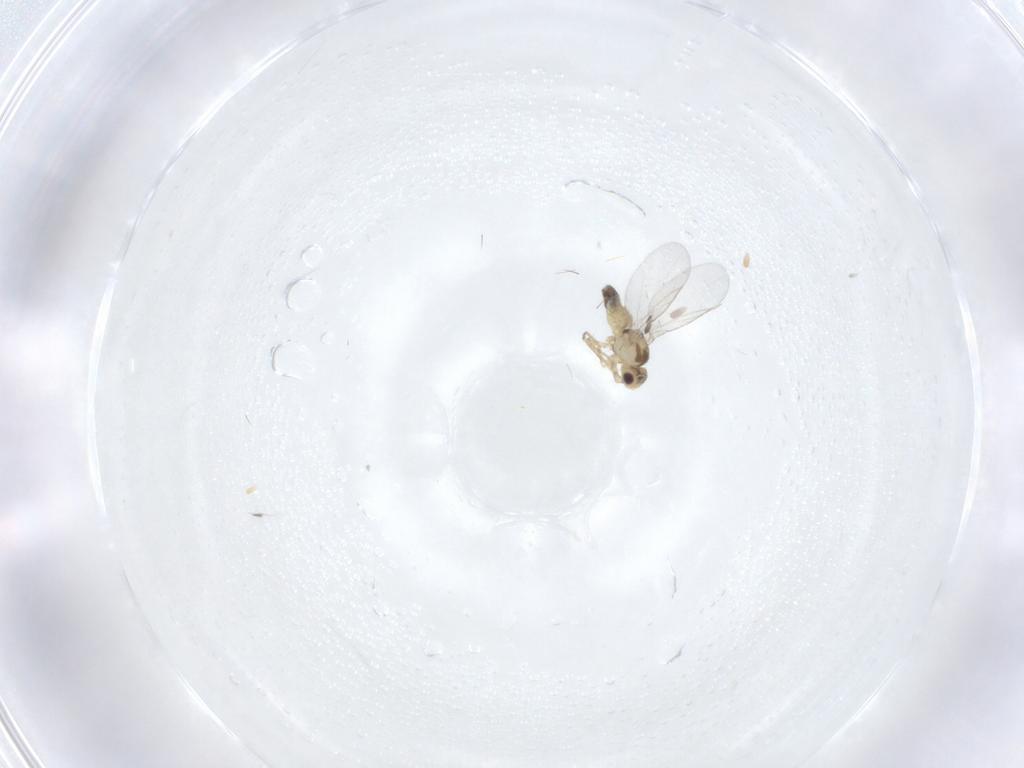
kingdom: Animalia
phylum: Arthropoda
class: Insecta
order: Diptera
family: Agromyzidae
